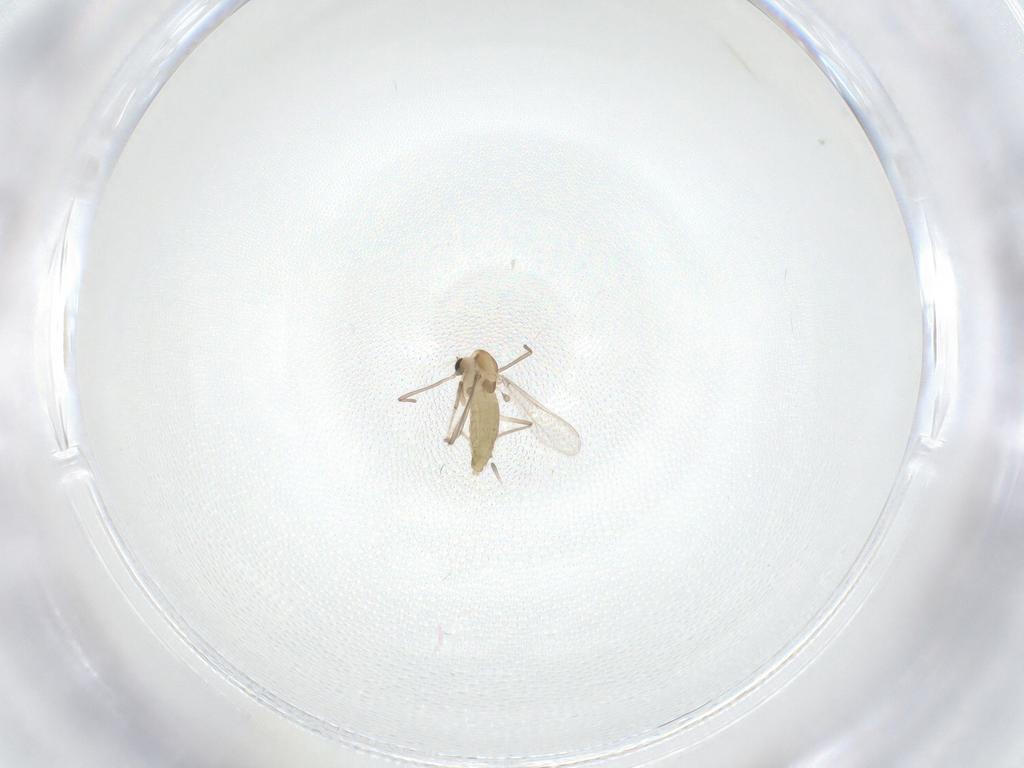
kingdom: Animalia
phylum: Arthropoda
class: Insecta
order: Diptera
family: Chironomidae
